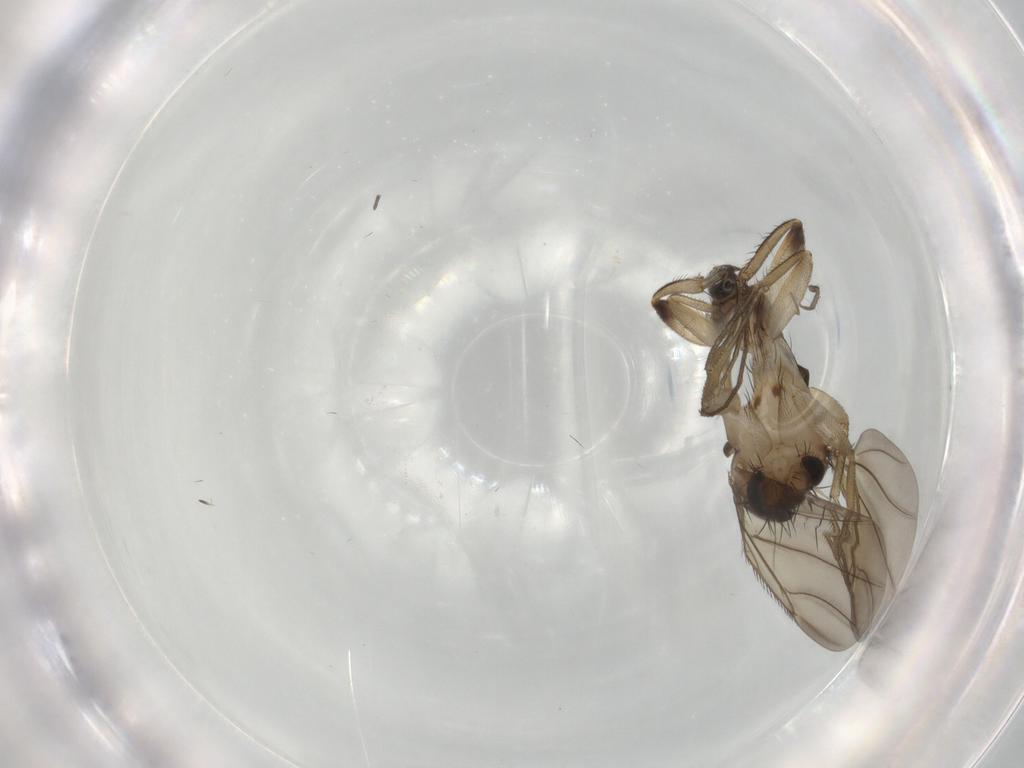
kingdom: Animalia
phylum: Arthropoda
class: Insecta
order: Diptera
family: Phoridae
